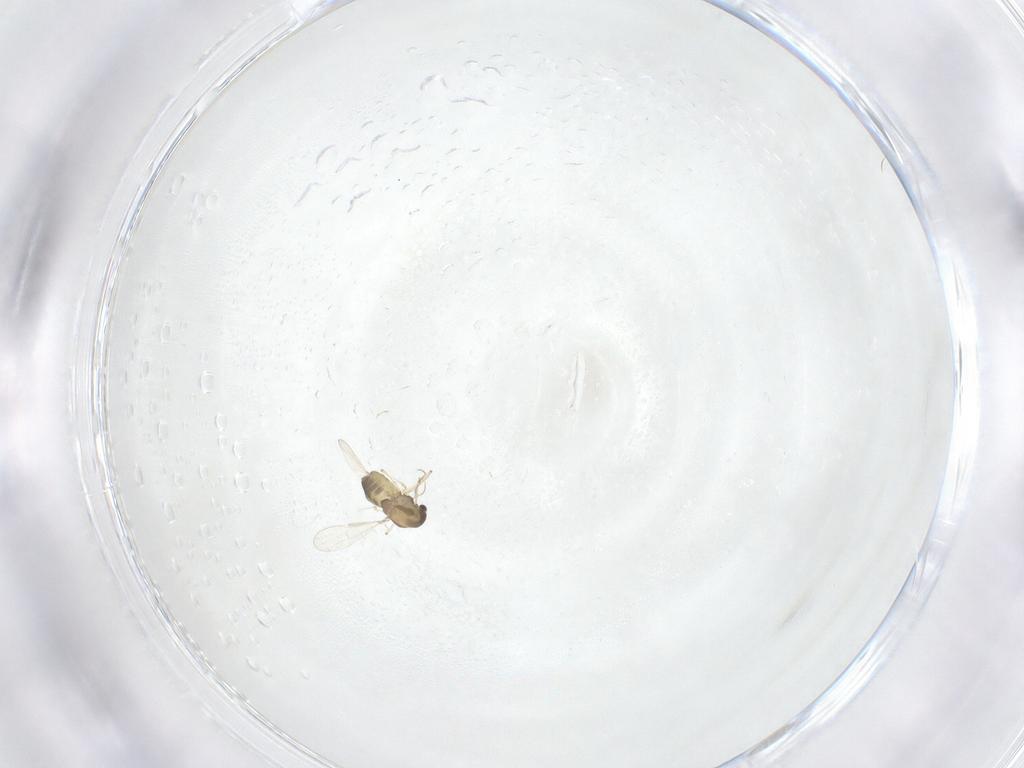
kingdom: Animalia
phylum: Arthropoda
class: Insecta
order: Diptera
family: Chironomidae
